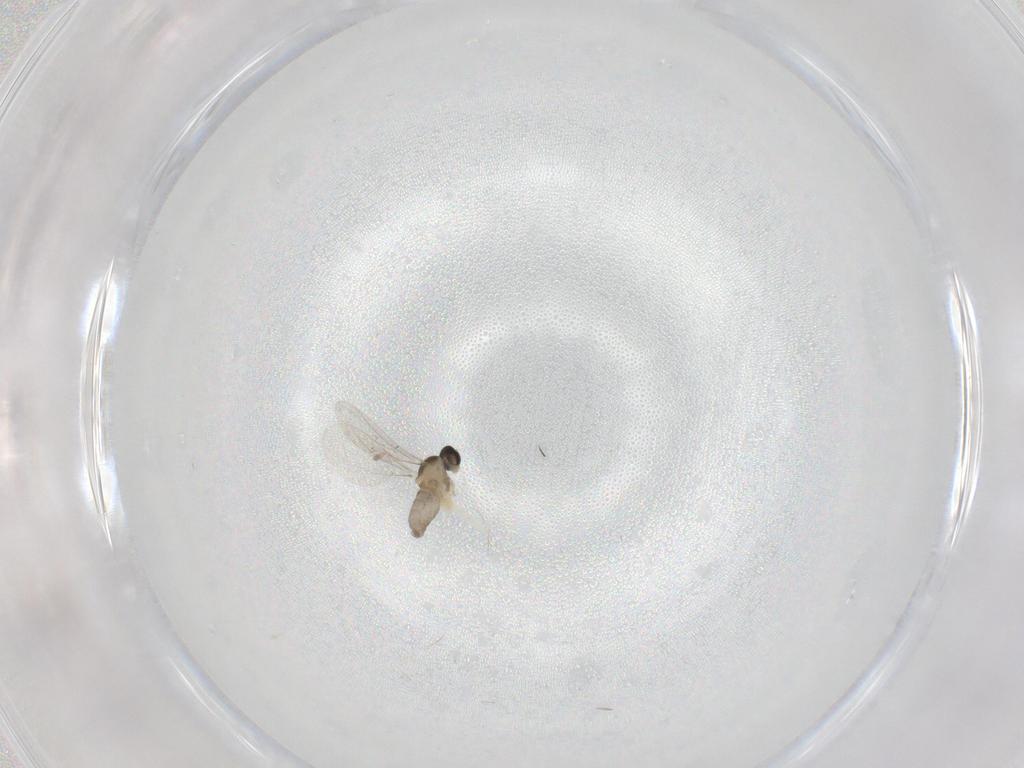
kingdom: Animalia
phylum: Arthropoda
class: Insecta
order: Diptera
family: Cecidomyiidae
